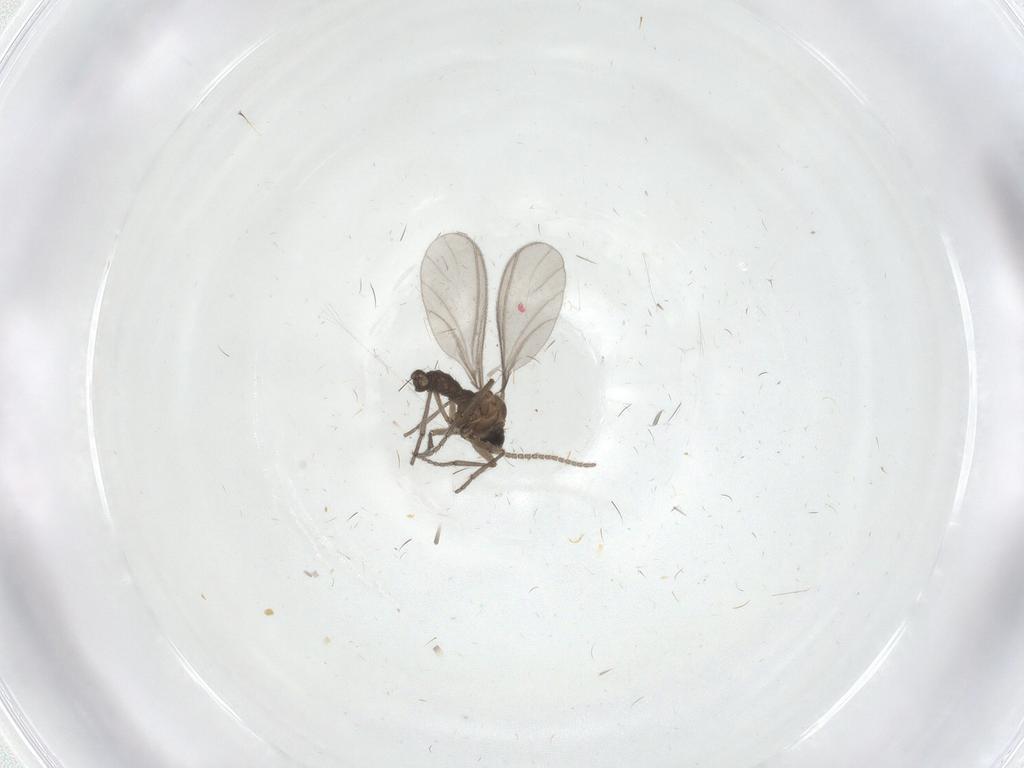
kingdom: Animalia
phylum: Arthropoda
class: Insecta
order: Diptera
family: Sciaridae
